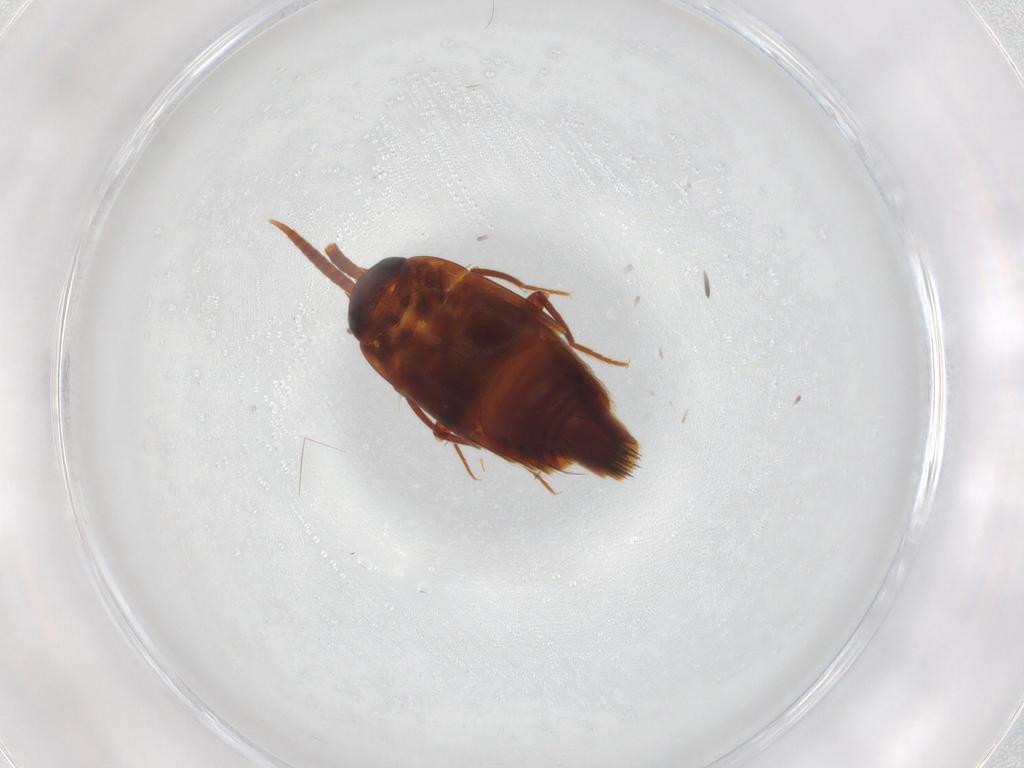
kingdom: Animalia
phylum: Arthropoda
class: Insecta
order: Coleoptera
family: Staphylinidae
